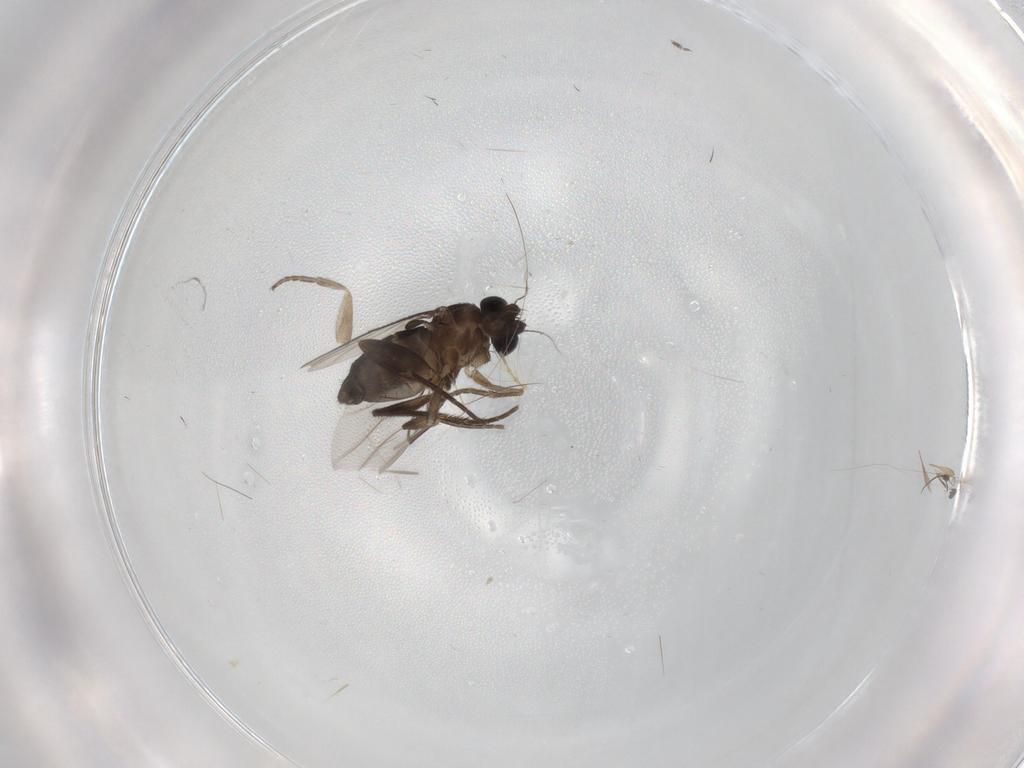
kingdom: Animalia
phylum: Arthropoda
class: Insecta
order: Diptera
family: Phoridae
